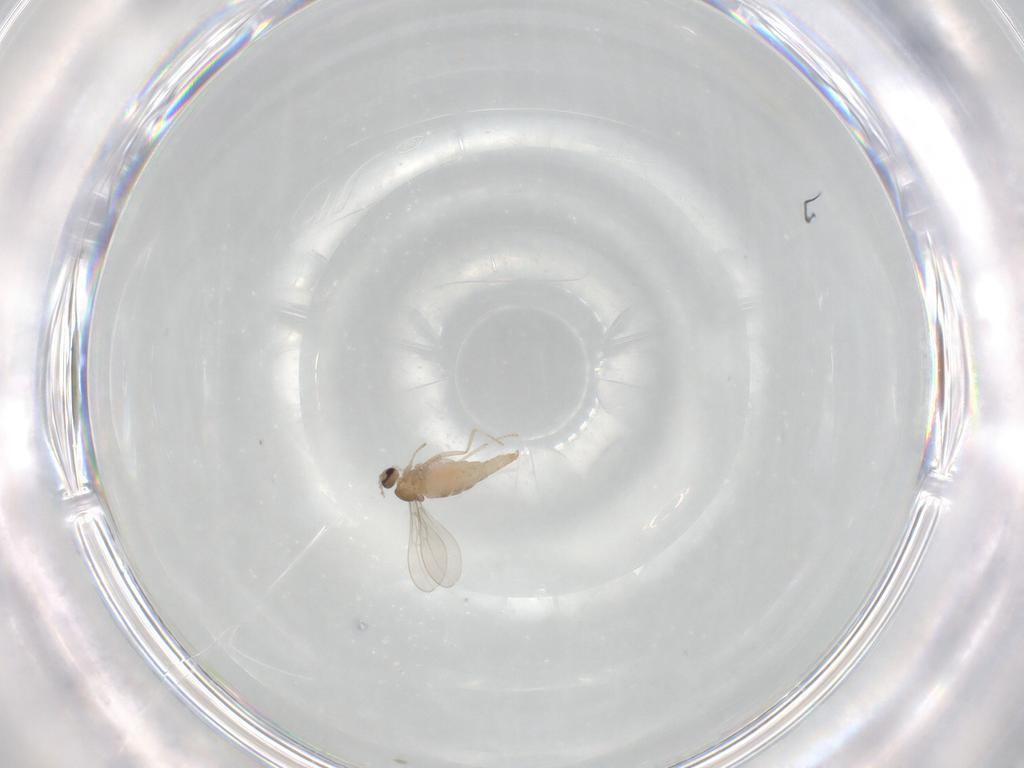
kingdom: Animalia
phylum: Arthropoda
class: Insecta
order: Diptera
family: Cecidomyiidae
